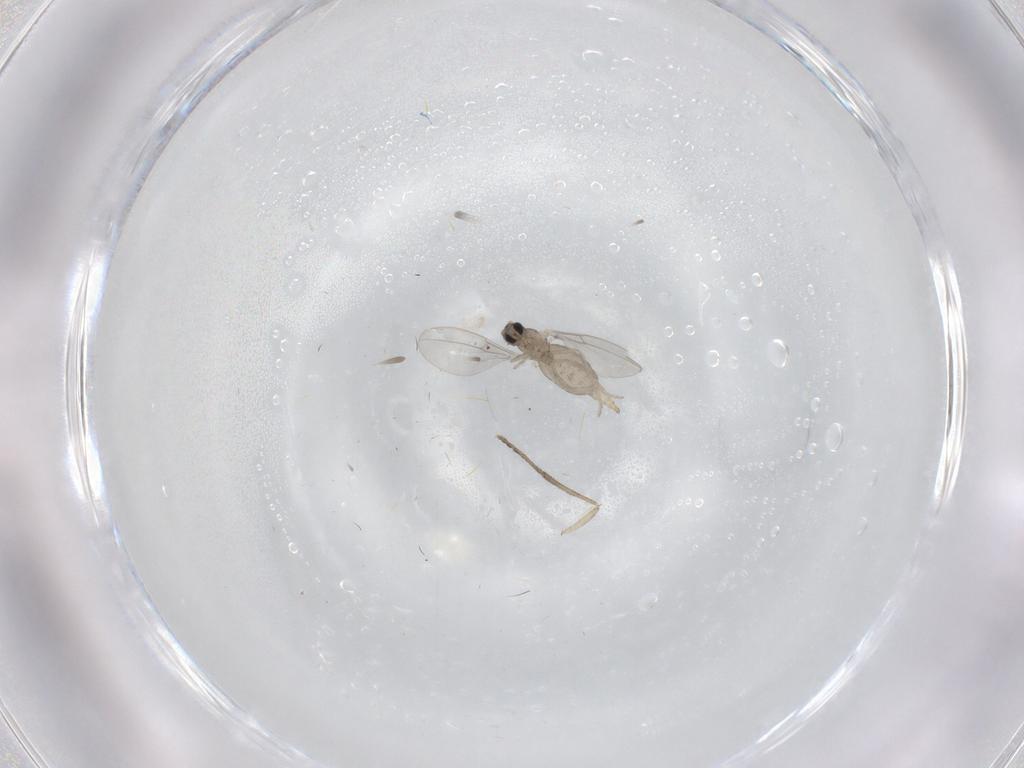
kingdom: Animalia
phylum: Arthropoda
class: Insecta
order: Diptera
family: Cecidomyiidae
